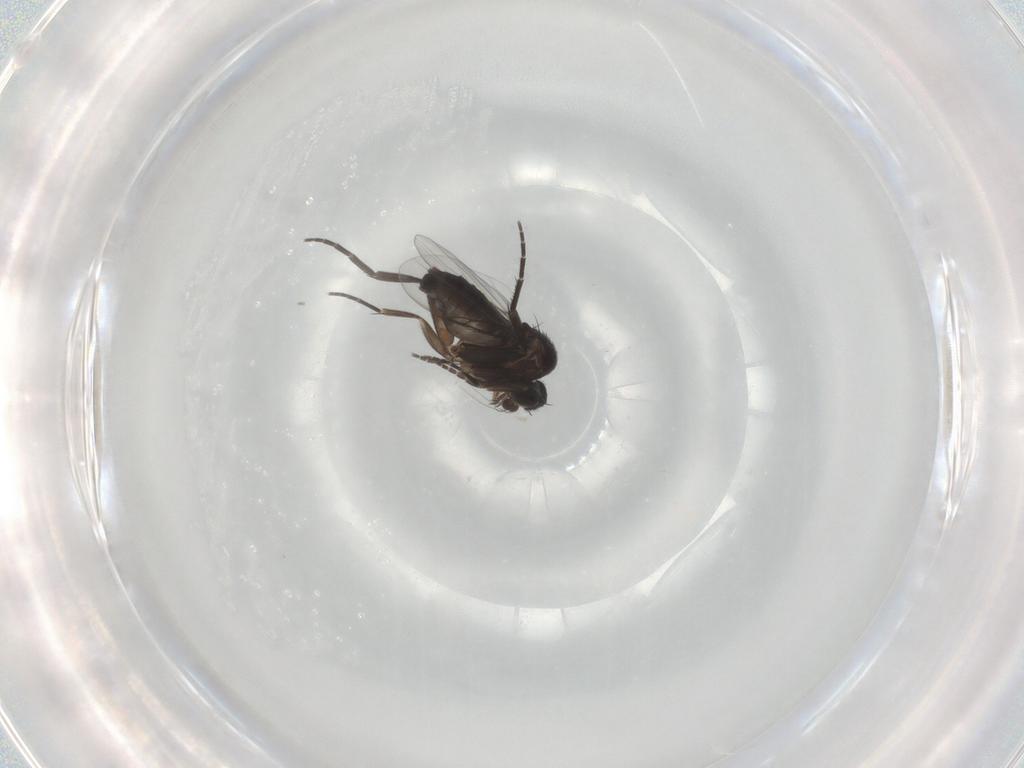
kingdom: Animalia
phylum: Arthropoda
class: Insecta
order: Diptera
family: Phoridae
